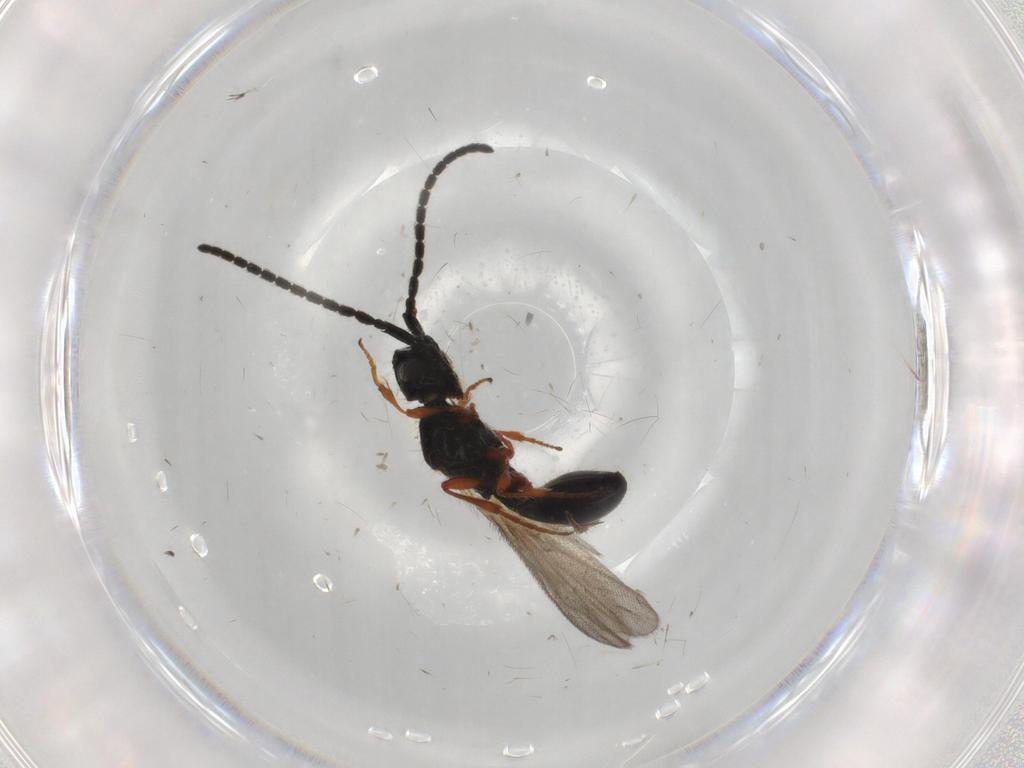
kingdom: Animalia
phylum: Arthropoda
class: Insecta
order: Hymenoptera
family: Diapriidae
